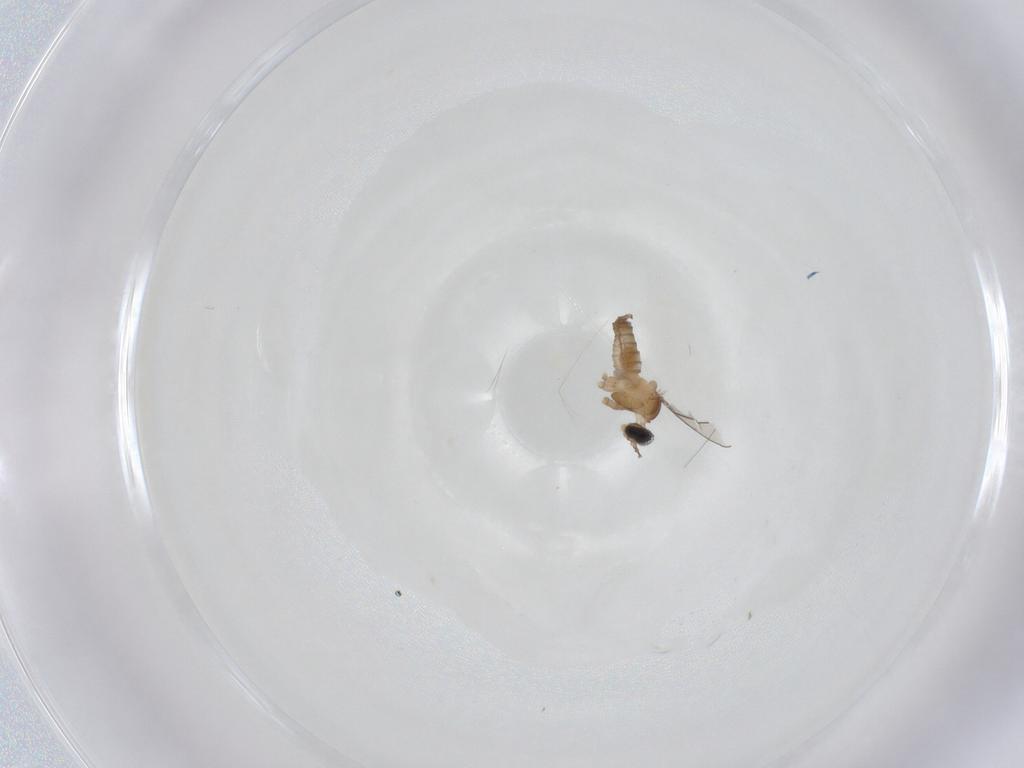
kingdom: Animalia
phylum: Arthropoda
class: Insecta
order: Diptera
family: Cecidomyiidae
